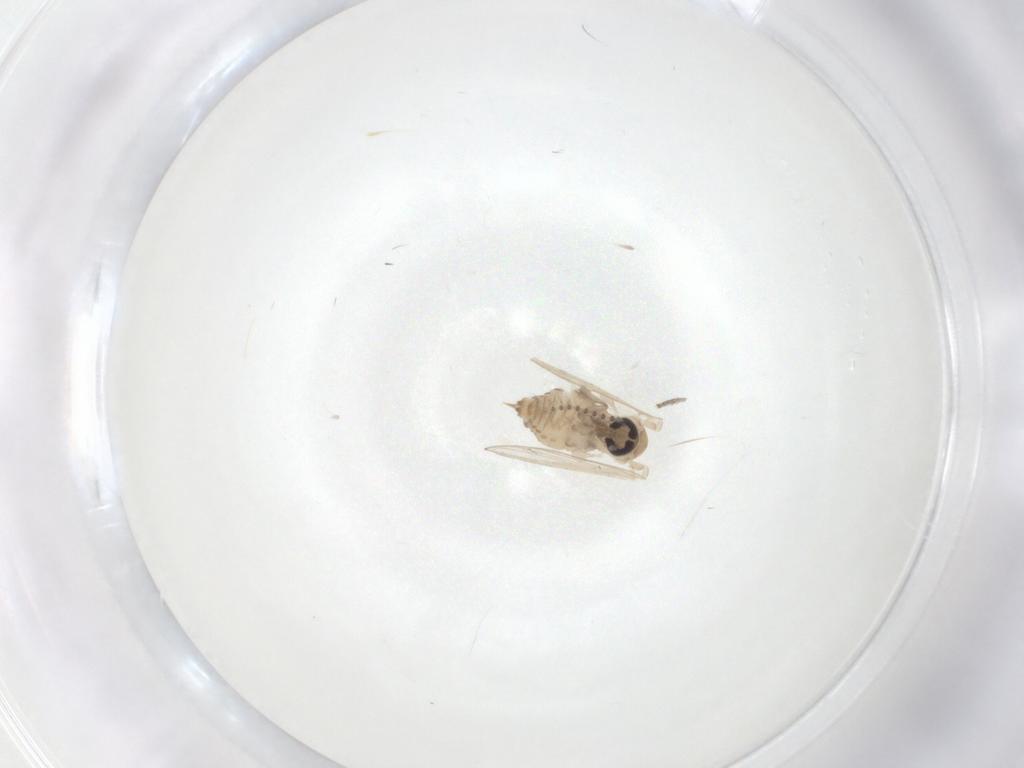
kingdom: Animalia
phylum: Arthropoda
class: Insecta
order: Diptera
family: Psychodidae
